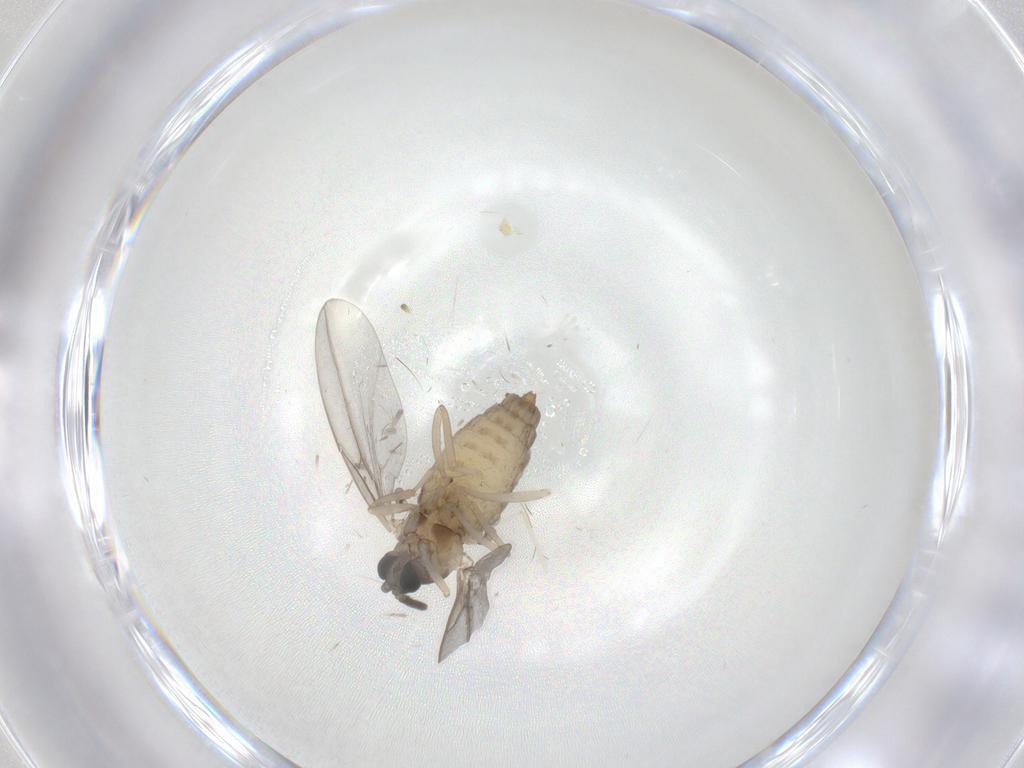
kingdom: Animalia
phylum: Arthropoda
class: Insecta
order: Diptera
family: Cecidomyiidae
